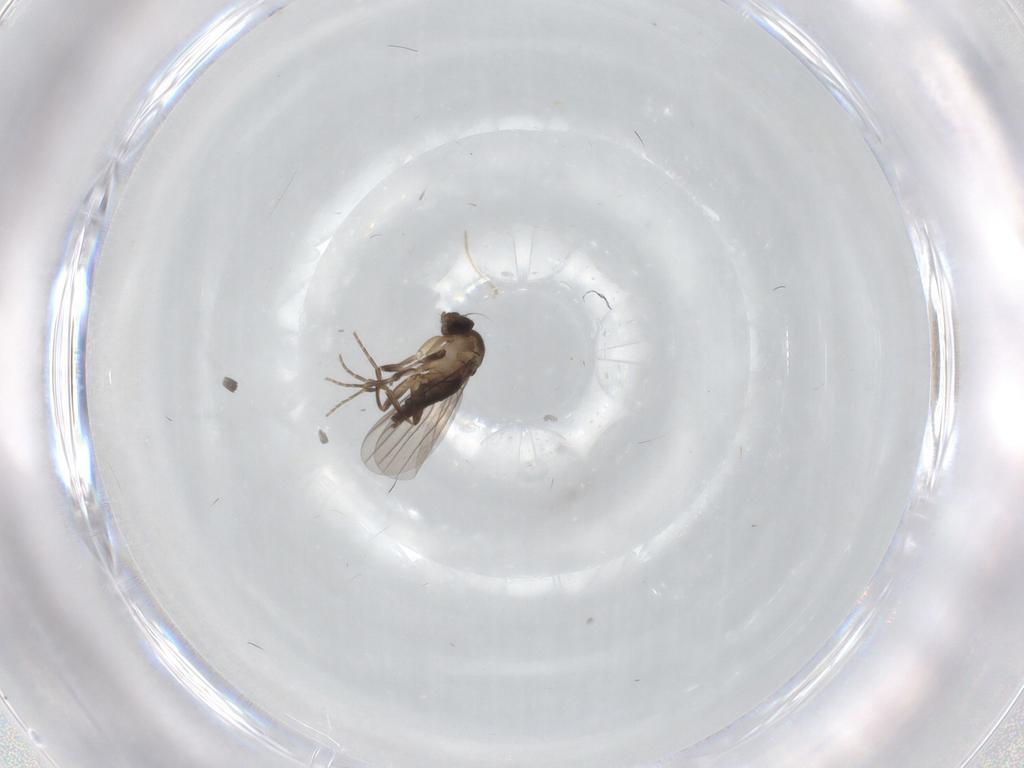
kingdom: Animalia
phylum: Arthropoda
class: Insecta
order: Diptera
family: Phoridae
